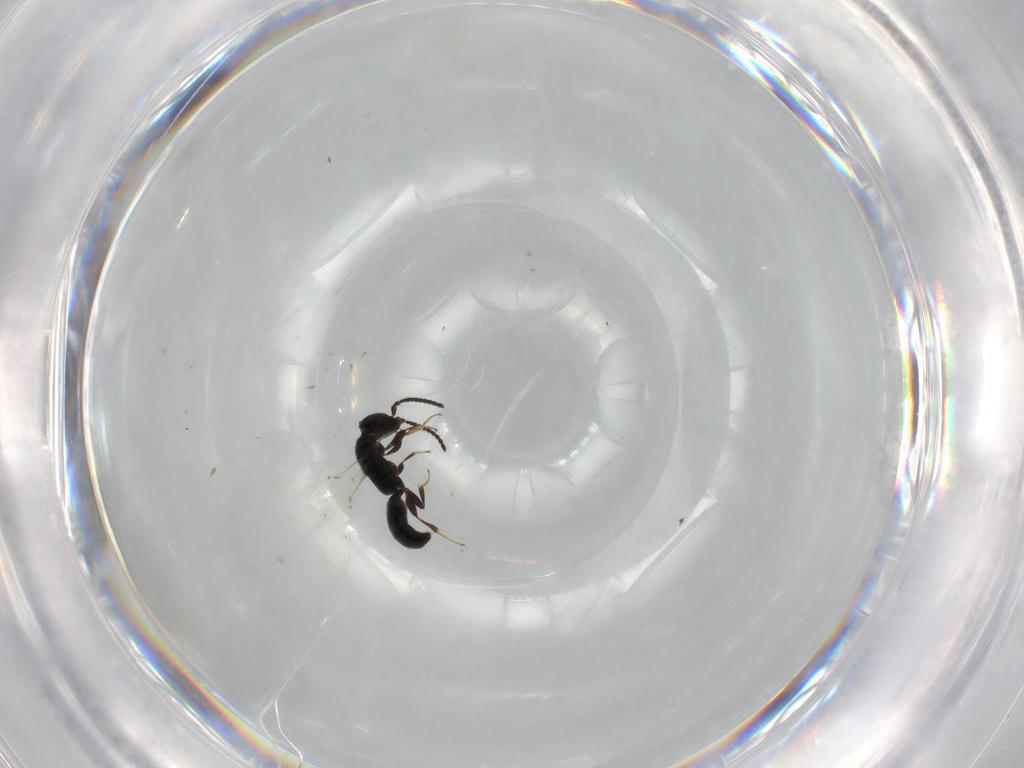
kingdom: Animalia
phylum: Arthropoda
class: Insecta
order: Hymenoptera
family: Bethylidae
